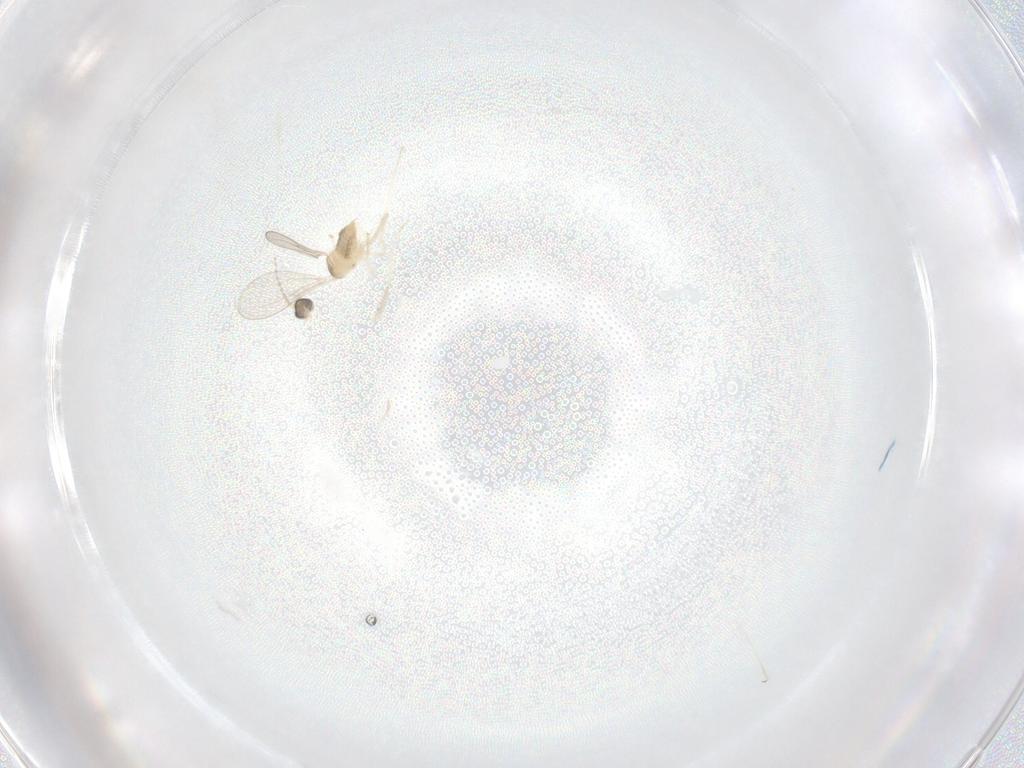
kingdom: Animalia
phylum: Arthropoda
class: Insecta
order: Diptera
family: Cecidomyiidae
